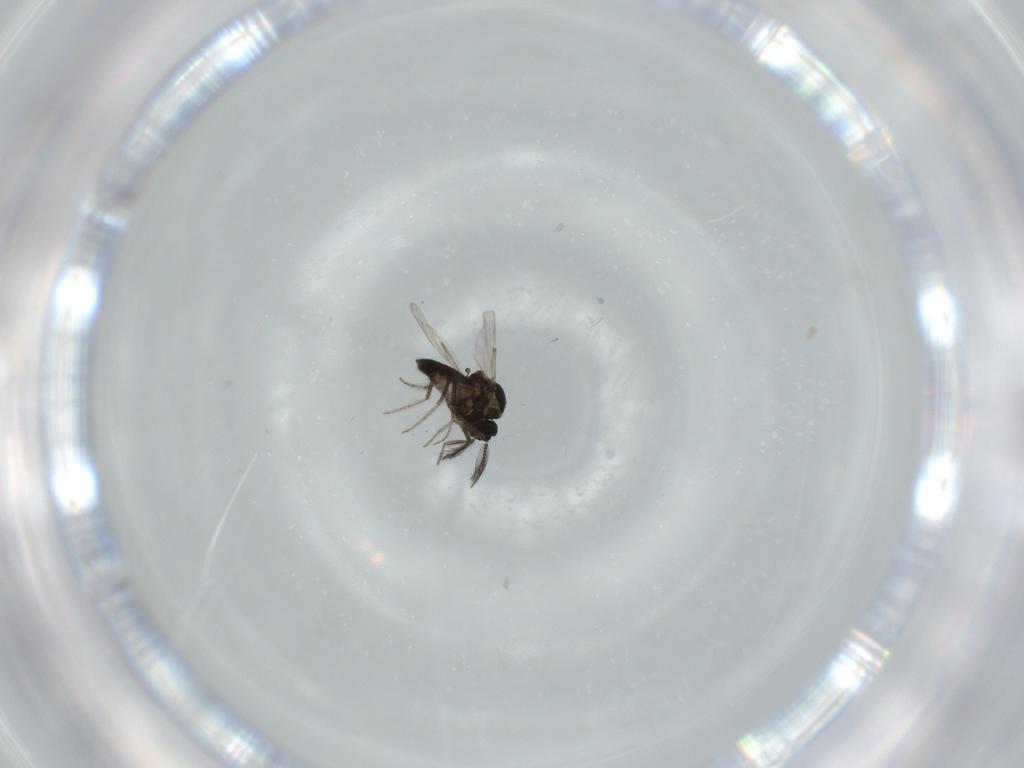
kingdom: Animalia
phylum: Arthropoda
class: Insecta
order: Diptera
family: Ceratopogonidae
